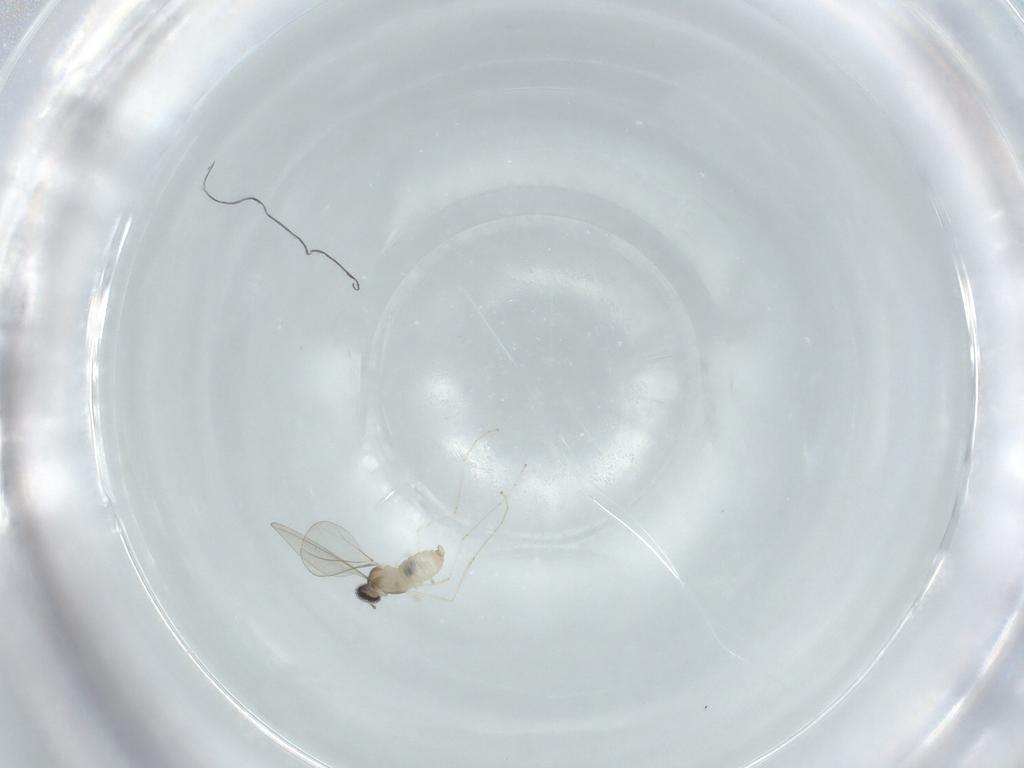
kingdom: Animalia
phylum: Arthropoda
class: Insecta
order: Diptera
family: Cecidomyiidae
